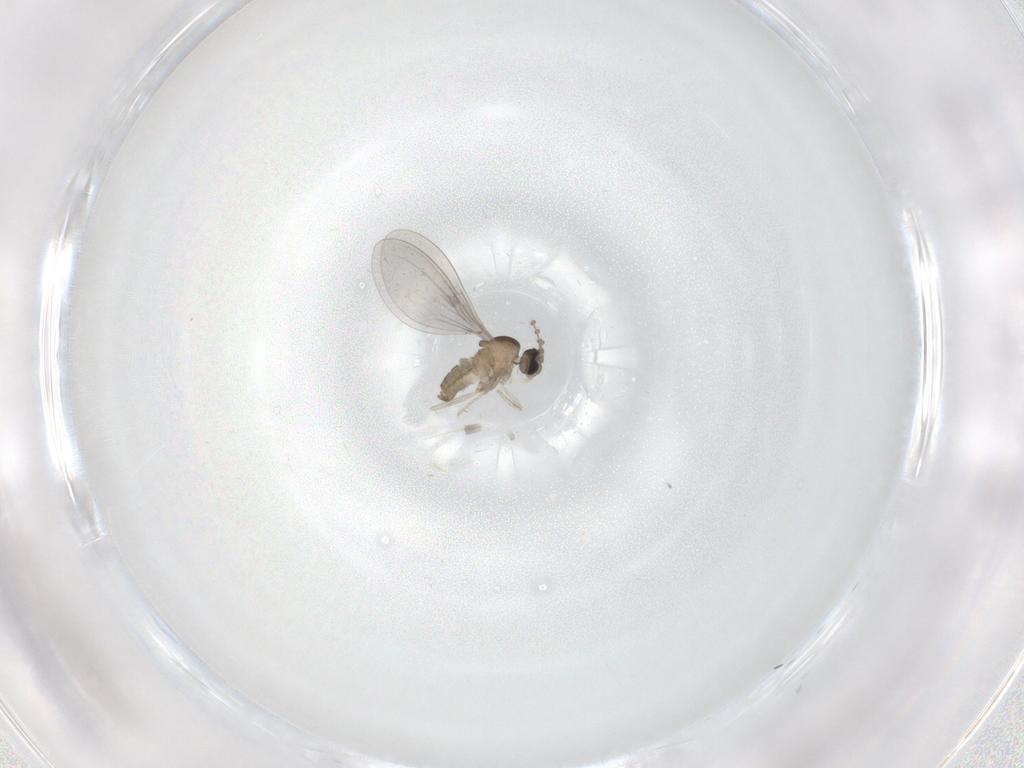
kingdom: Animalia
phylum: Arthropoda
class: Insecta
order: Diptera
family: Cecidomyiidae
